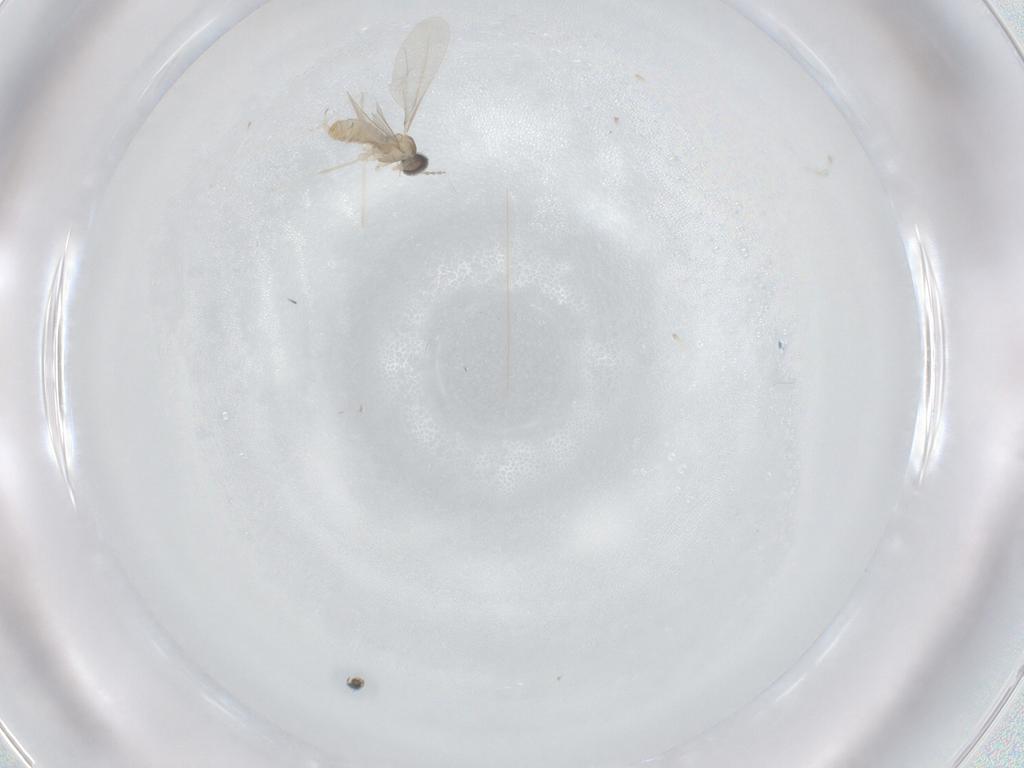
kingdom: Animalia
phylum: Arthropoda
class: Insecta
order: Diptera
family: Cecidomyiidae
